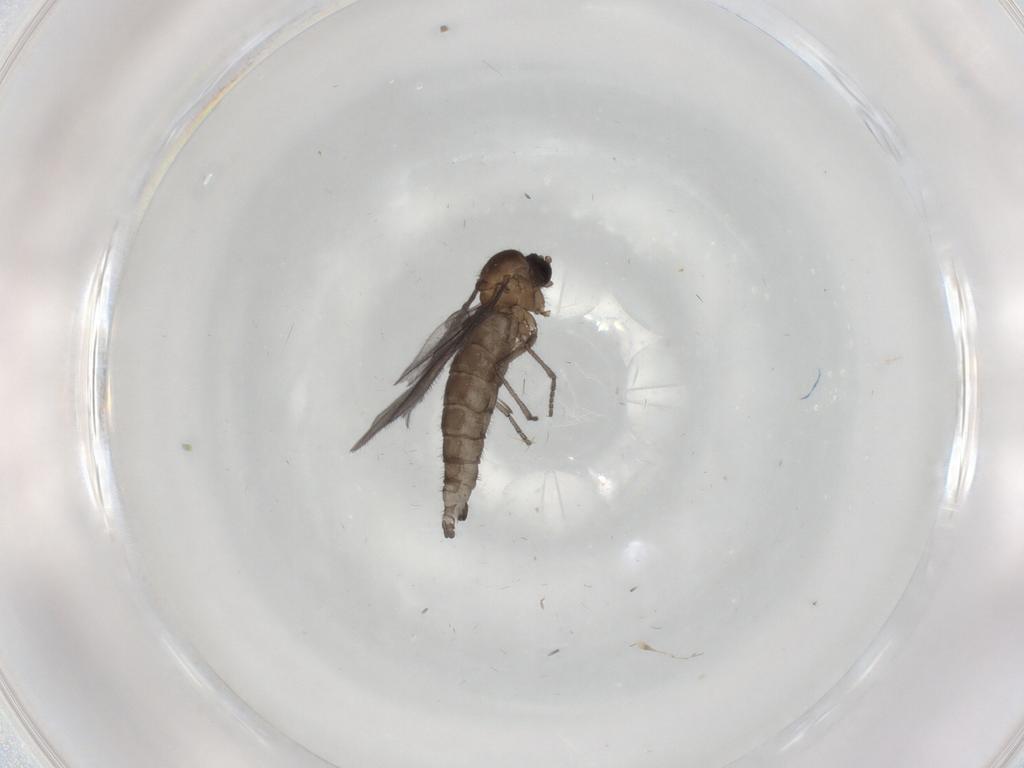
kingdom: Animalia
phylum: Arthropoda
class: Insecta
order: Diptera
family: Sciaridae
